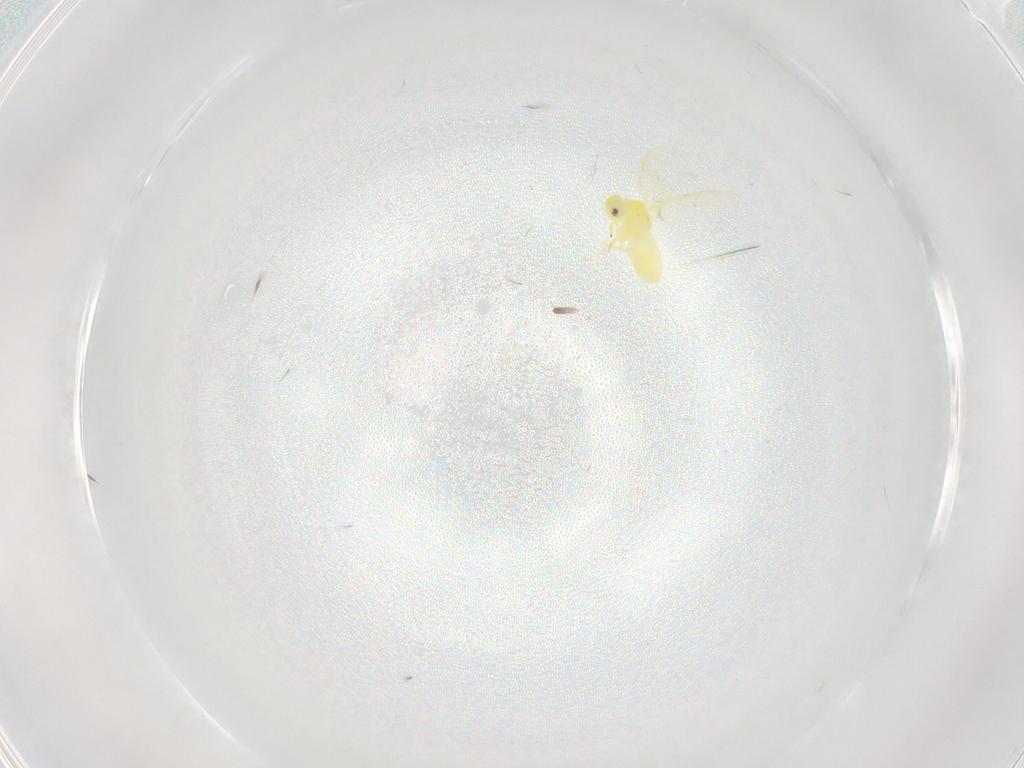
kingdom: Animalia
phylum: Arthropoda
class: Insecta
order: Hemiptera
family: Aleyrodidae
